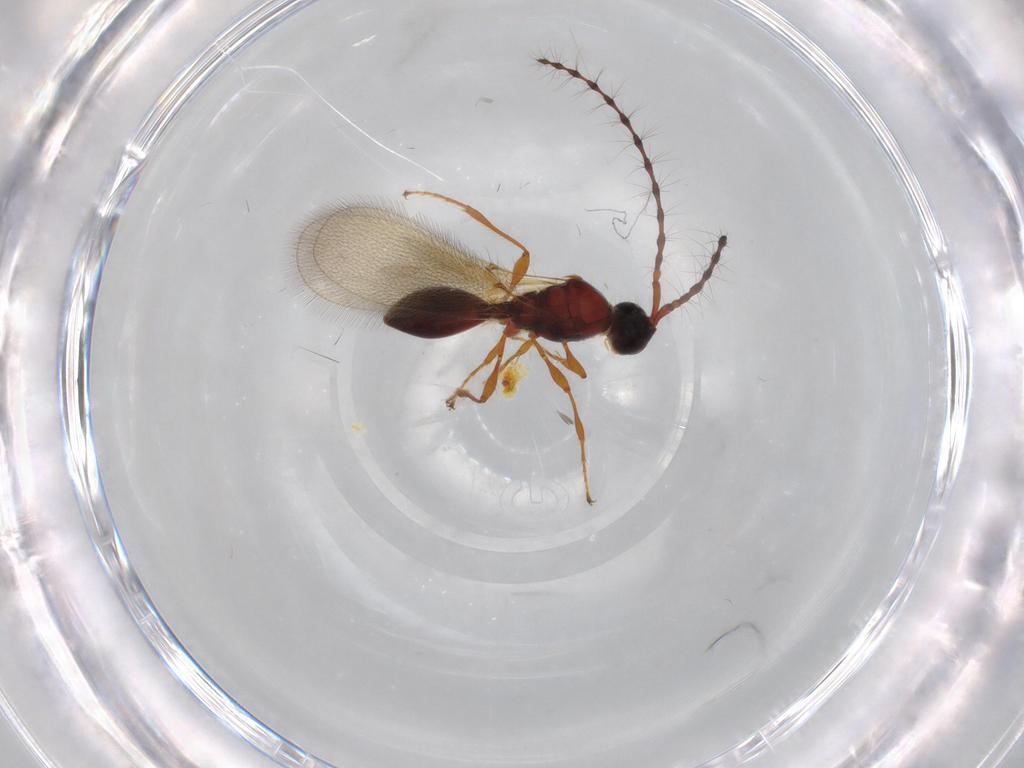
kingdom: Animalia
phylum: Arthropoda
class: Insecta
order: Hymenoptera
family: Diapriidae
